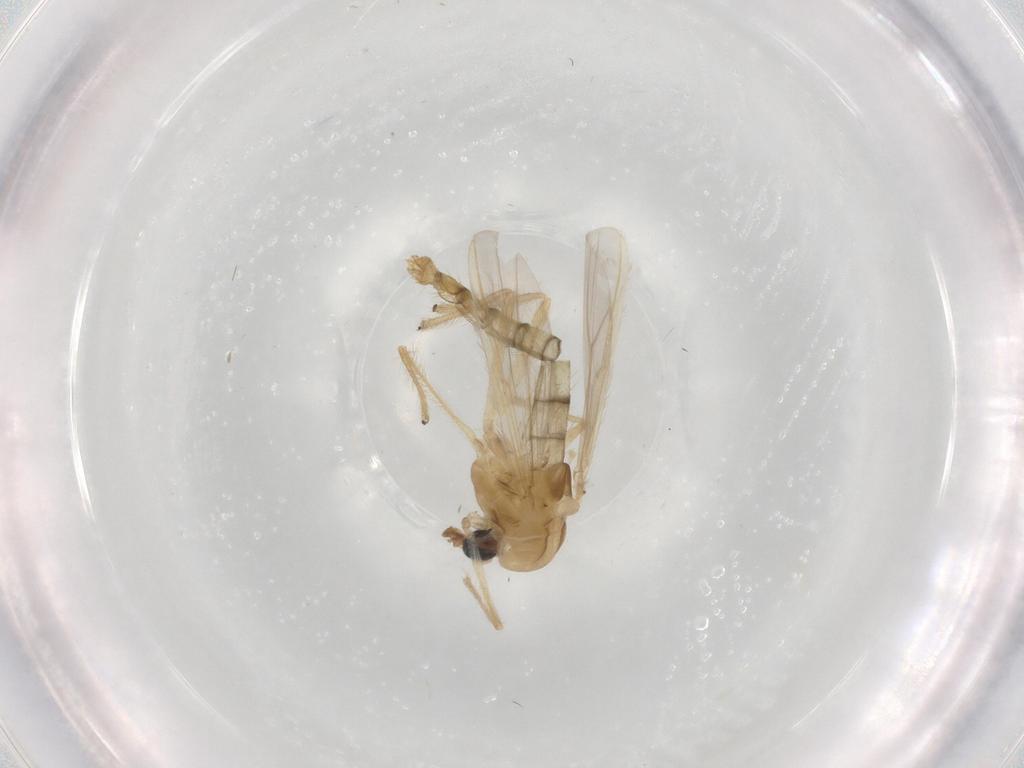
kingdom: Animalia
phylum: Arthropoda
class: Insecta
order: Diptera
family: Chironomidae
